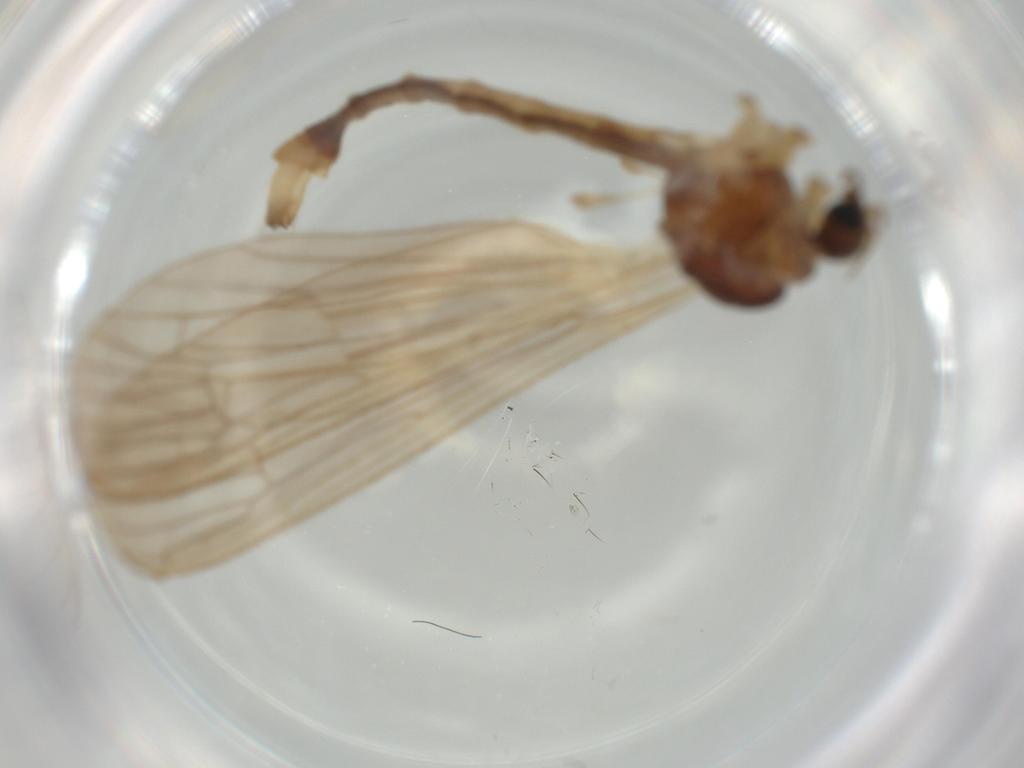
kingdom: Animalia
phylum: Arthropoda
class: Insecta
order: Diptera
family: Limoniidae
